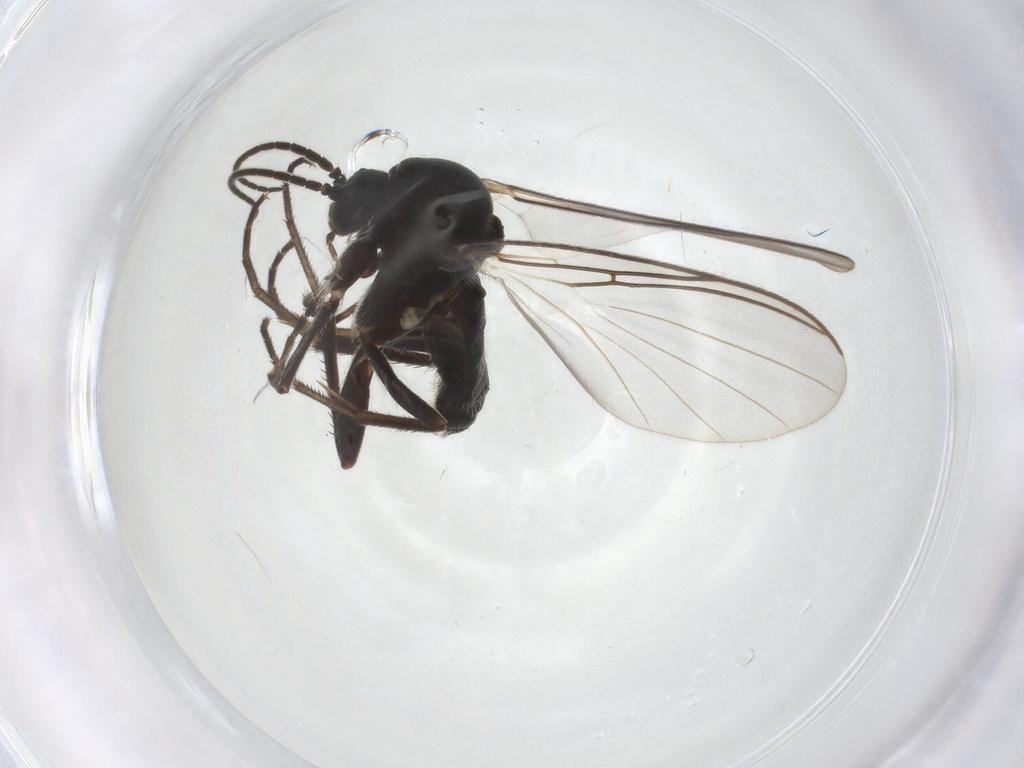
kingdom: Animalia
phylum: Arthropoda
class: Insecta
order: Diptera
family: Mycetophilidae
